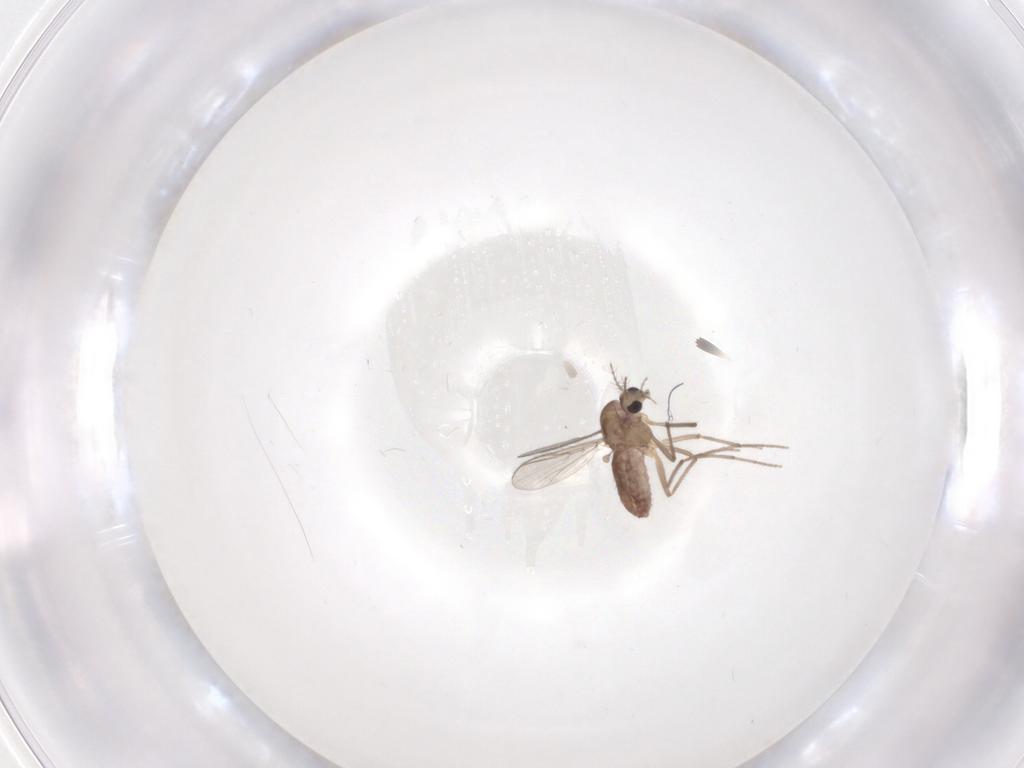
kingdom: Animalia
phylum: Arthropoda
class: Insecta
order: Diptera
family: Chironomidae
